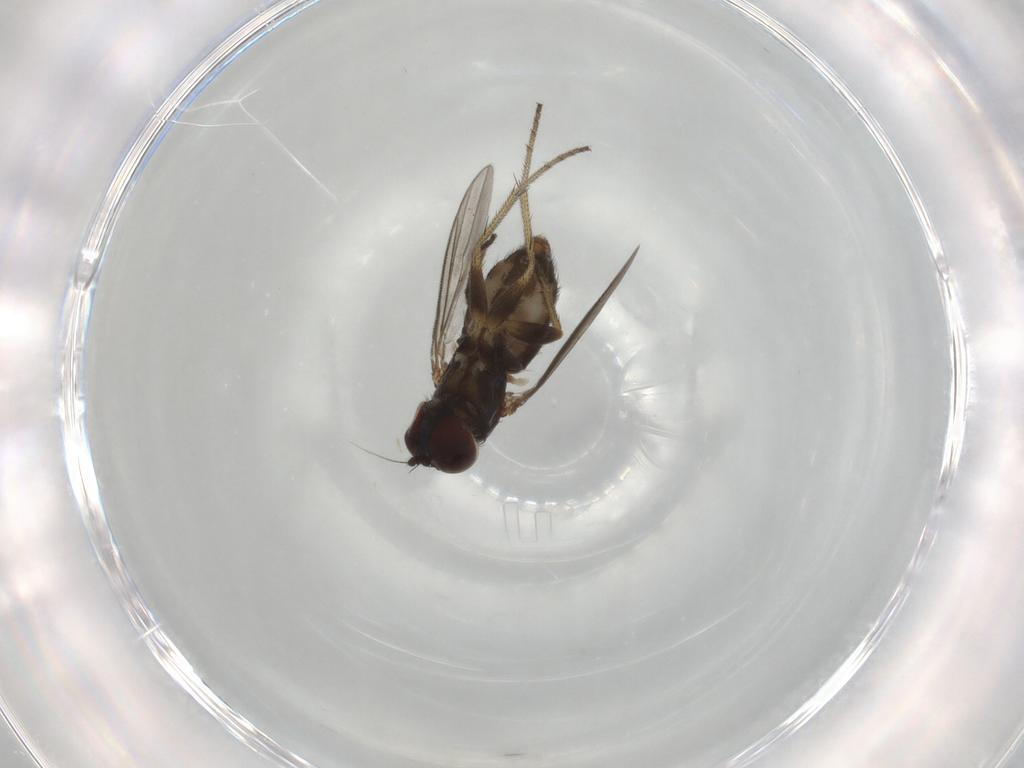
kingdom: Animalia
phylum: Arthropoda
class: Insecta
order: Diptera
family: Dolichopodidae
